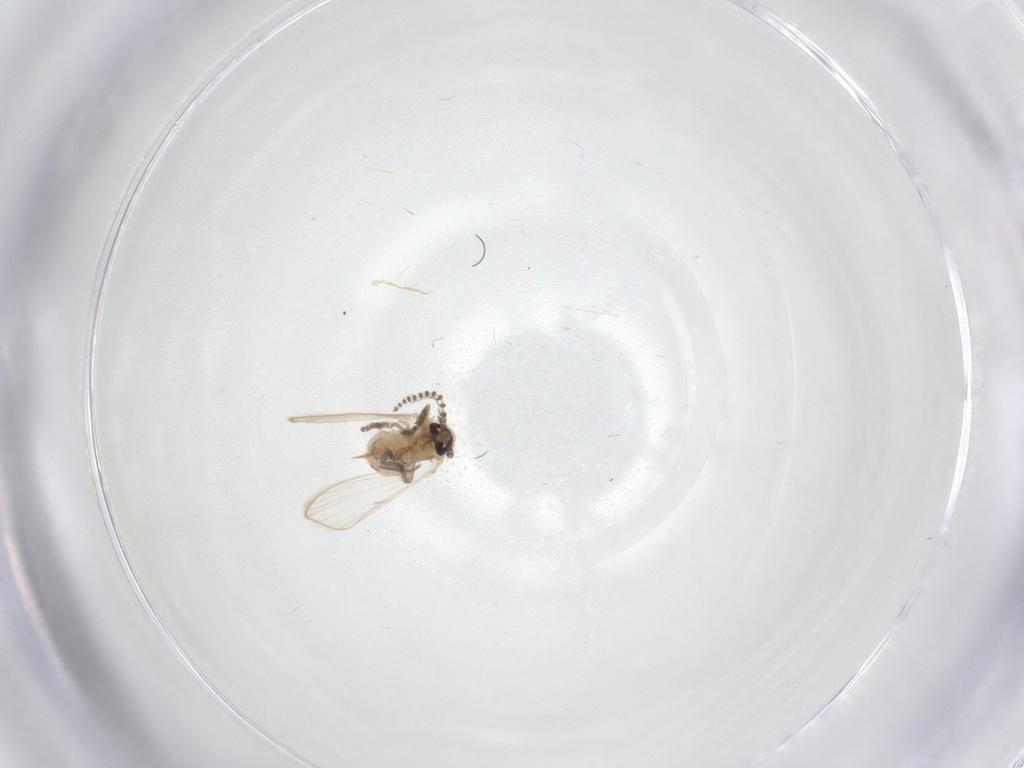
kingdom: Animalia
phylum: Arthropoda
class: Insecta
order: Diptera
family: Psychodidae
